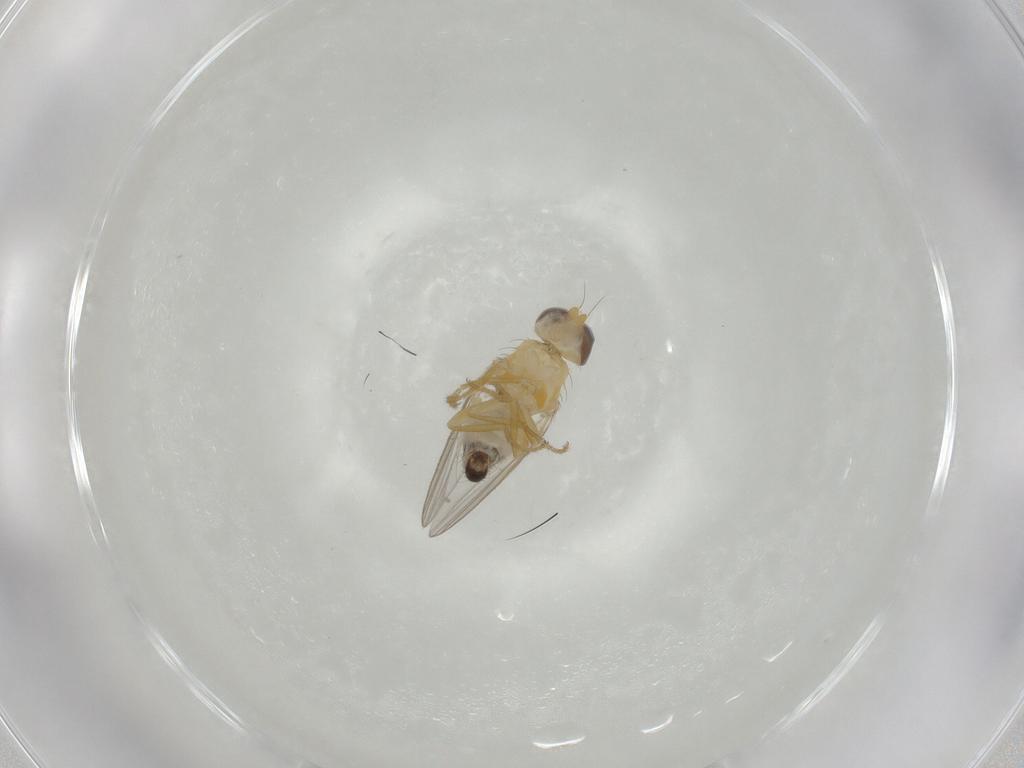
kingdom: Animalia
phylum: Arthropoda
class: Insecta
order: Diptera
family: Chyromyidae
